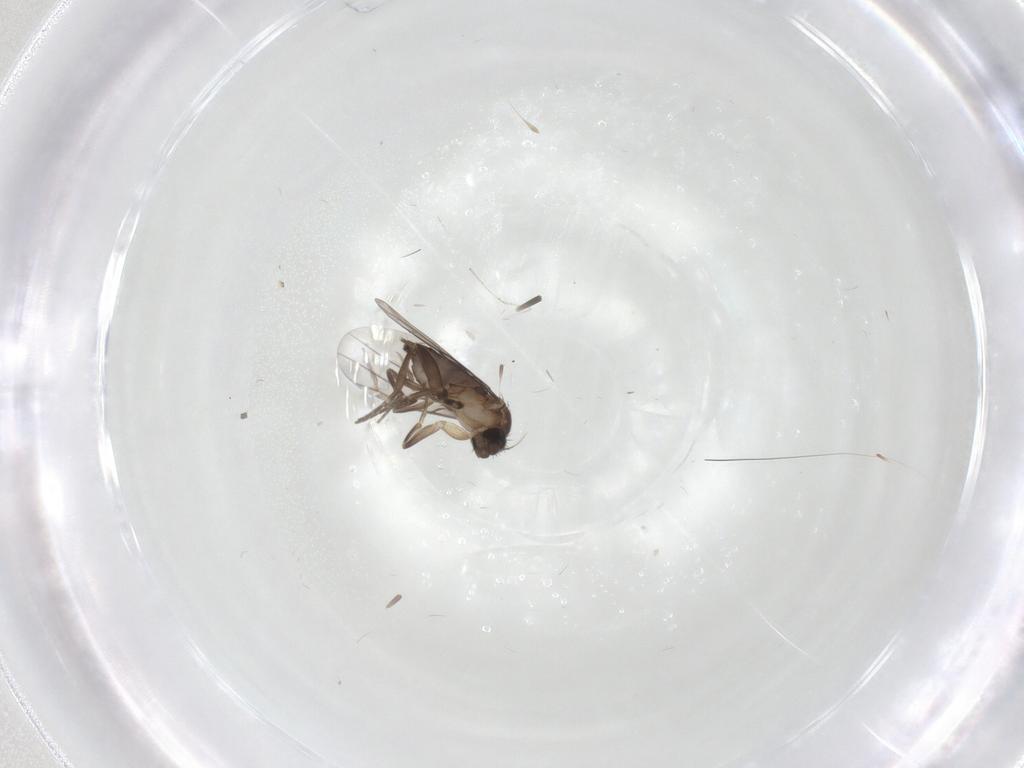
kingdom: Animalia
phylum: Arthropoda
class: Insecta
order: Diptera
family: Phoridae
